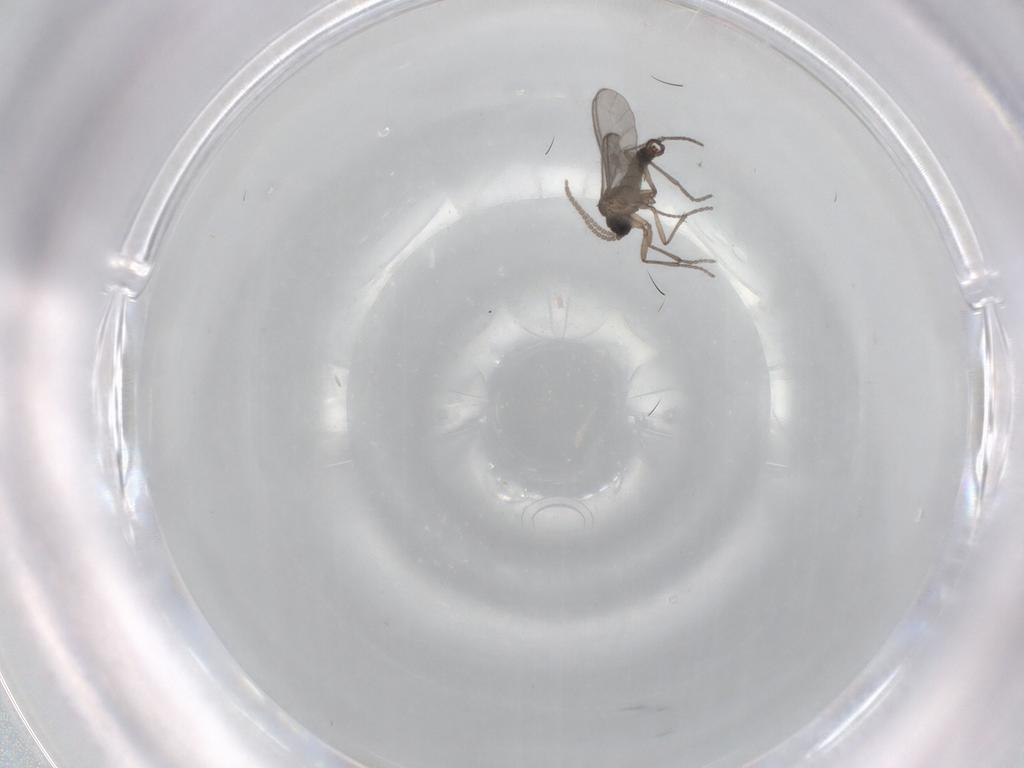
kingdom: Animalia
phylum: Arthropoda
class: Insecta
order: Diptera
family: Sciaridae
